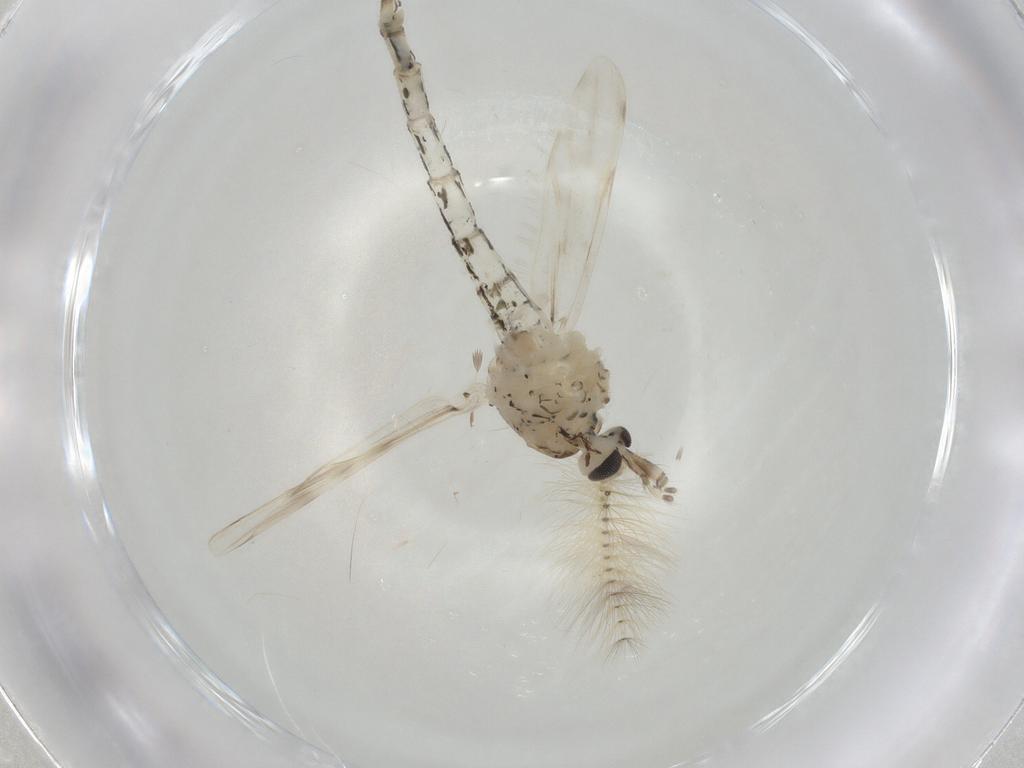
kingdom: Animalia
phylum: Arthropoda
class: Insecta
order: Diptera
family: Chaoboridae
